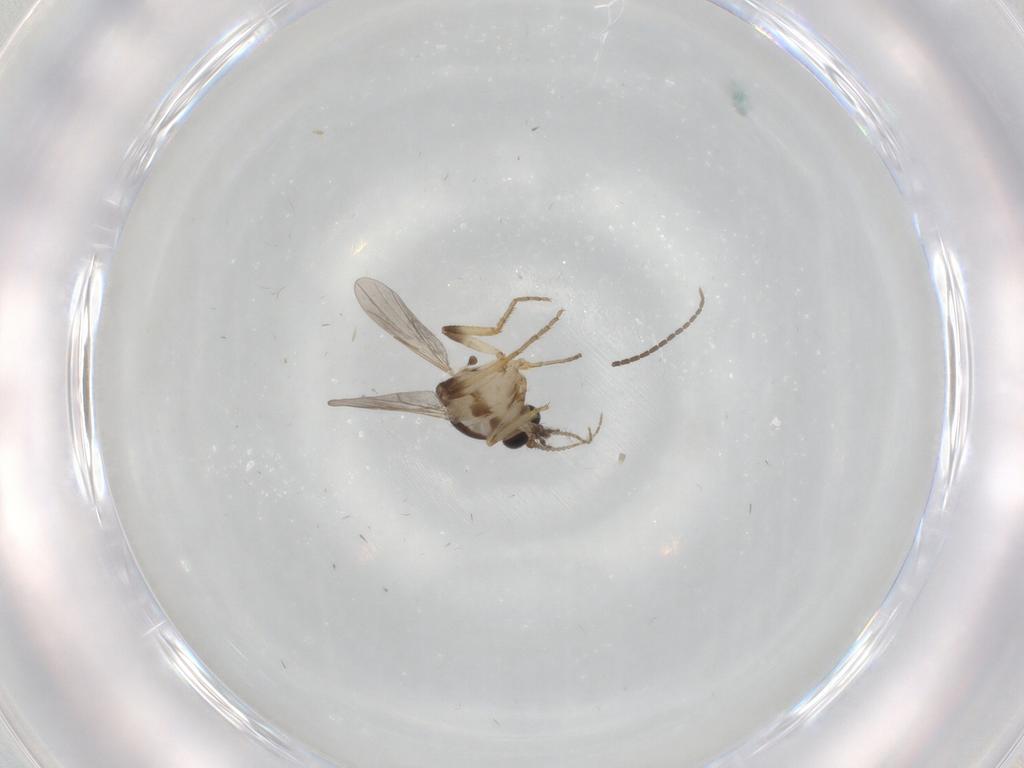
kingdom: Animalia
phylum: Arthropoda
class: Insecta
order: Diptera
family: Ceratopogonidae
